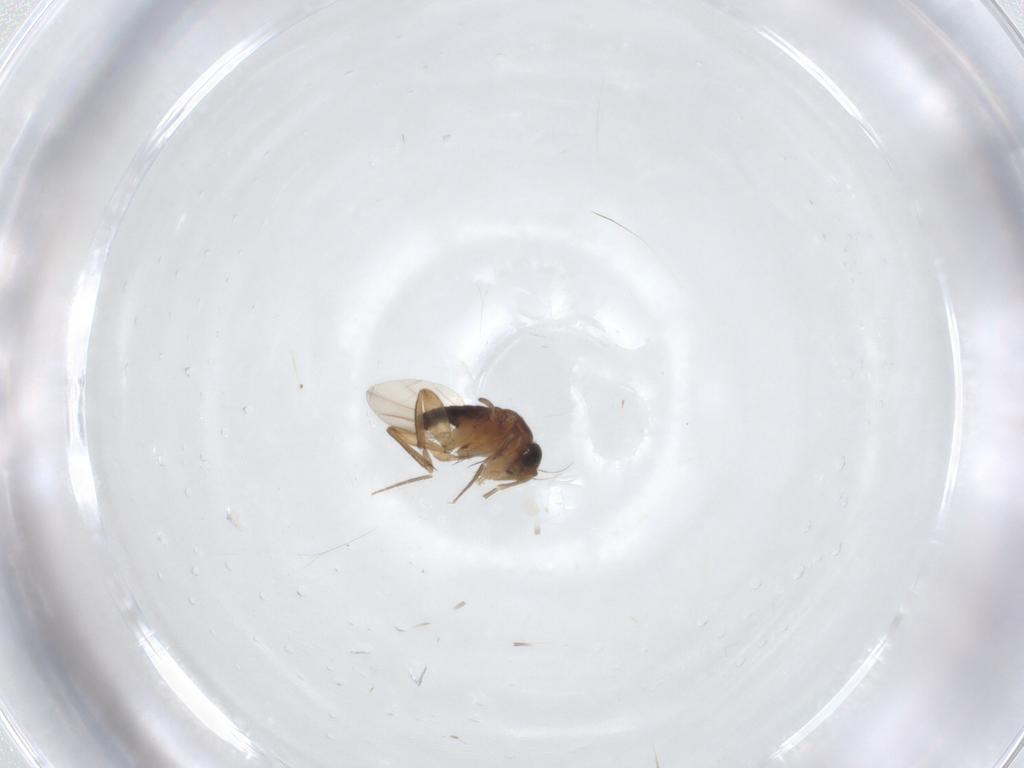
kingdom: Animalia
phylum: Arthropoda
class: Insecta
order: Diptera
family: Phoridae
